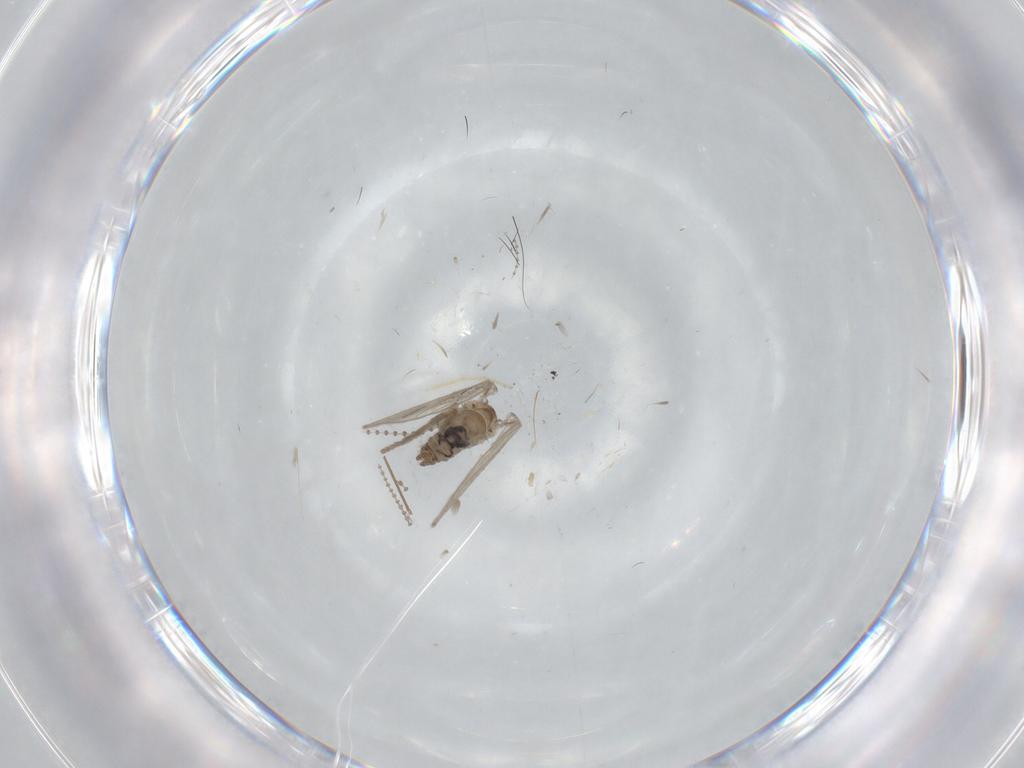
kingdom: Animalia
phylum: Arthropoda
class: Insecta
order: Diptera
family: Psychodidae
